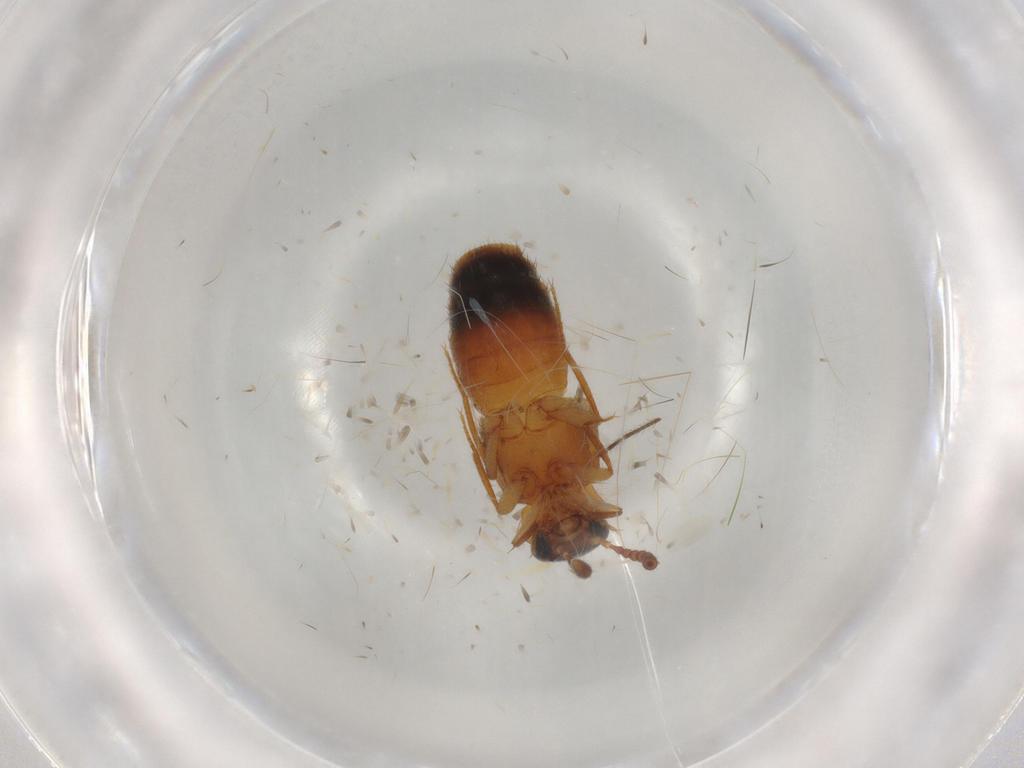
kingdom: Animalia
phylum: Arthropoda
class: Insecta
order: Coleoptera
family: Staphylinidae
